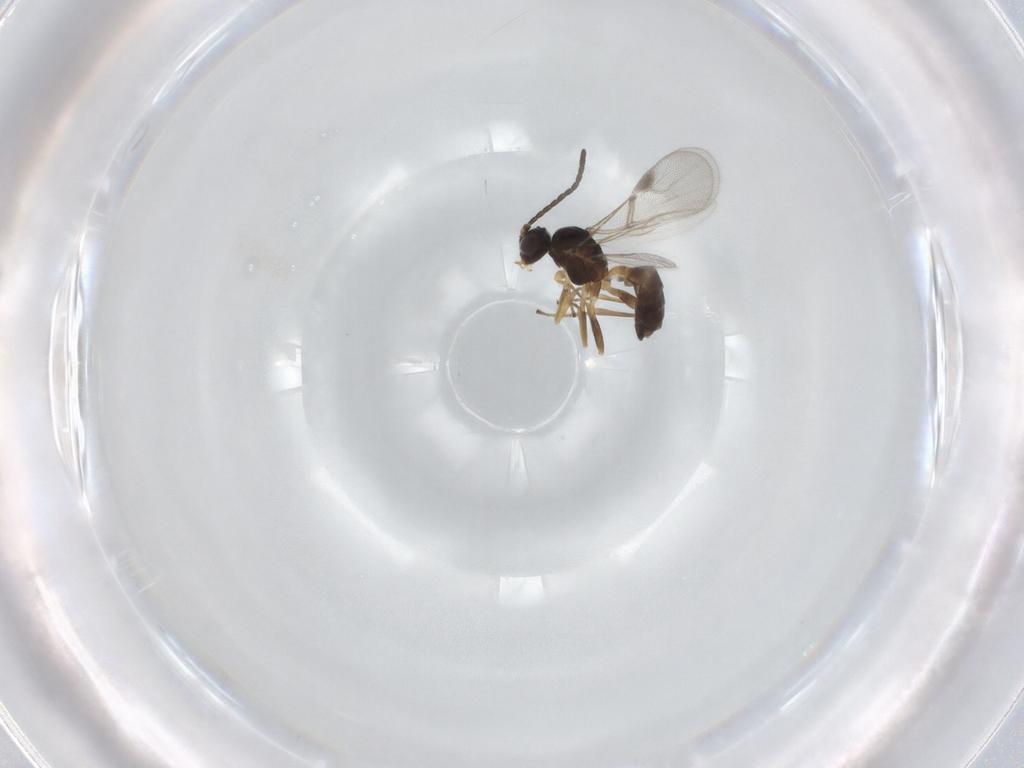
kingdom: Animalia
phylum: Arthropoda
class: Insecta
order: Hymenoptera
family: Braconidae
